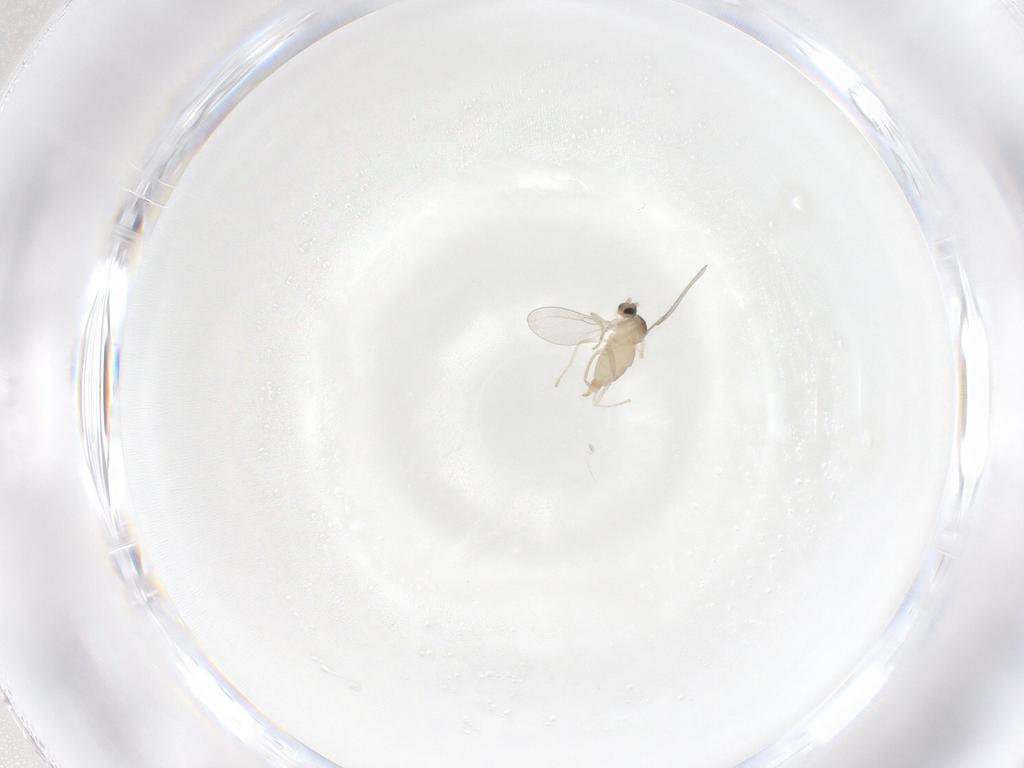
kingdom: Animalia
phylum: Arthropoda
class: Insecta
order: Diptera
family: Cecidomyiidae
